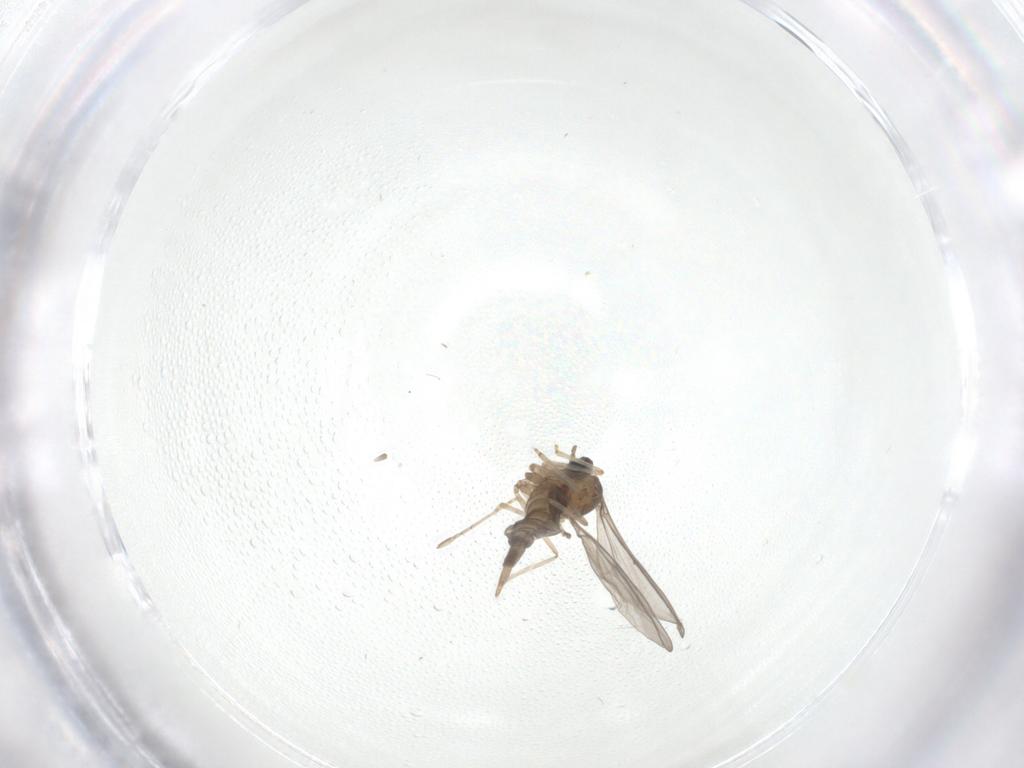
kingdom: Animalia
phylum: Arthropoda
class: Insecta
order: Diptera
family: Cecidomyiidae
